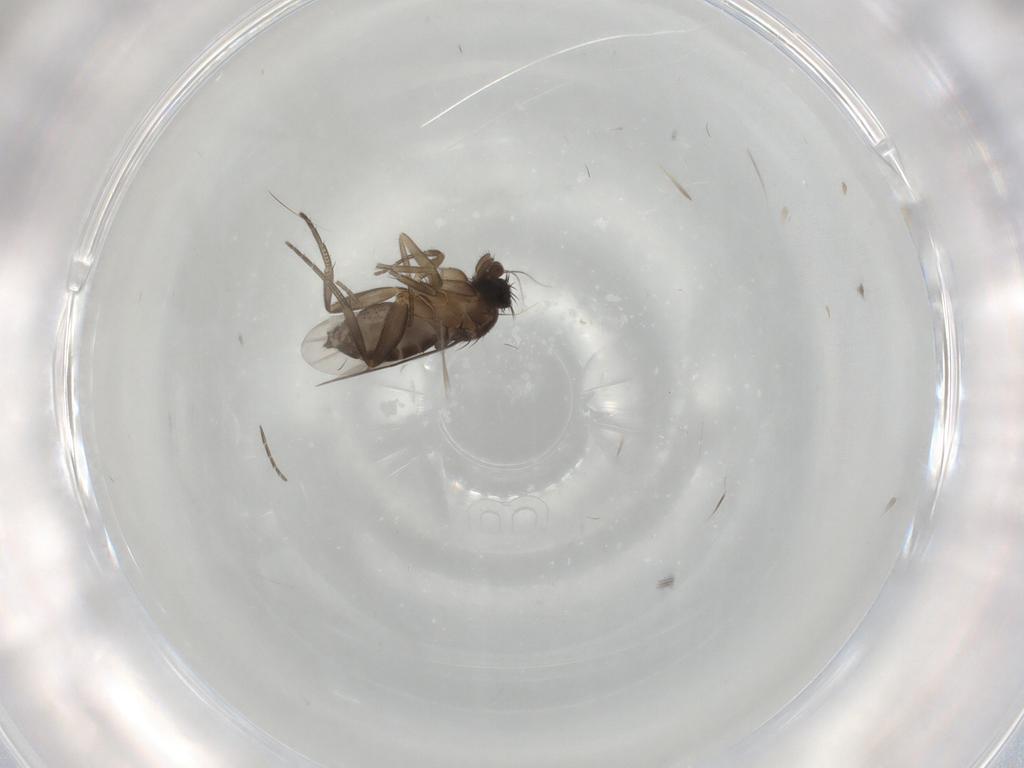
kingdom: Animalia
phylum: Arthropoda
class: Insecta
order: Diptera
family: Phoridae
